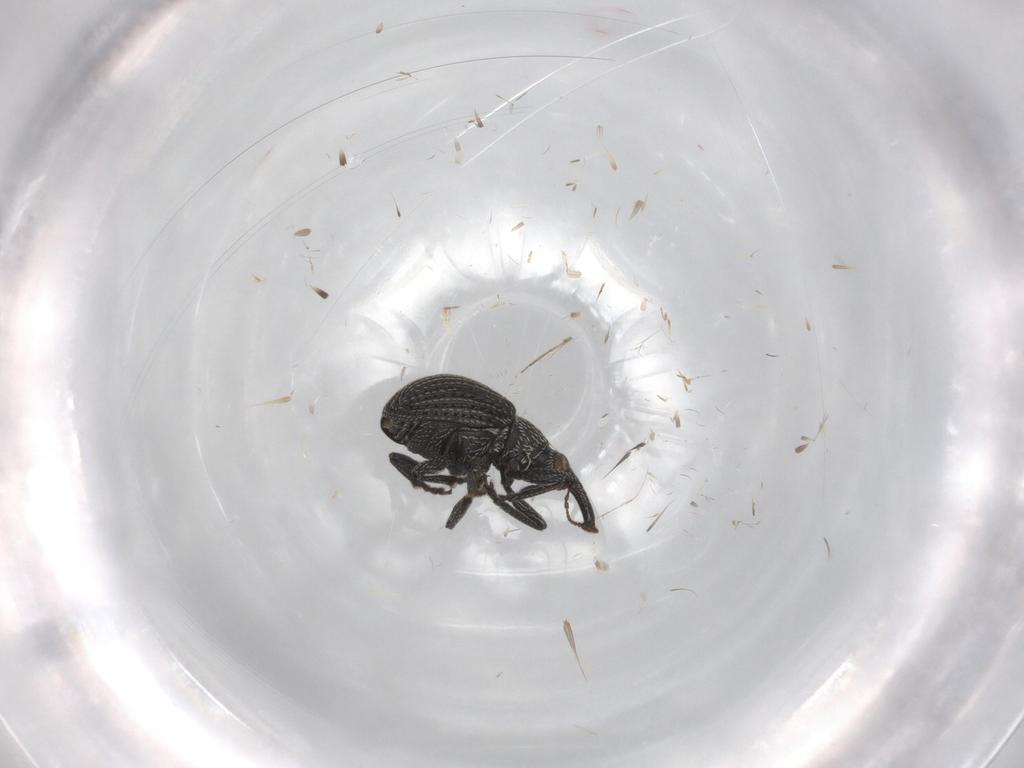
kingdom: Animalia
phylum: Arthropoda
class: Insecta
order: Coleoptera
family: Brentidae
